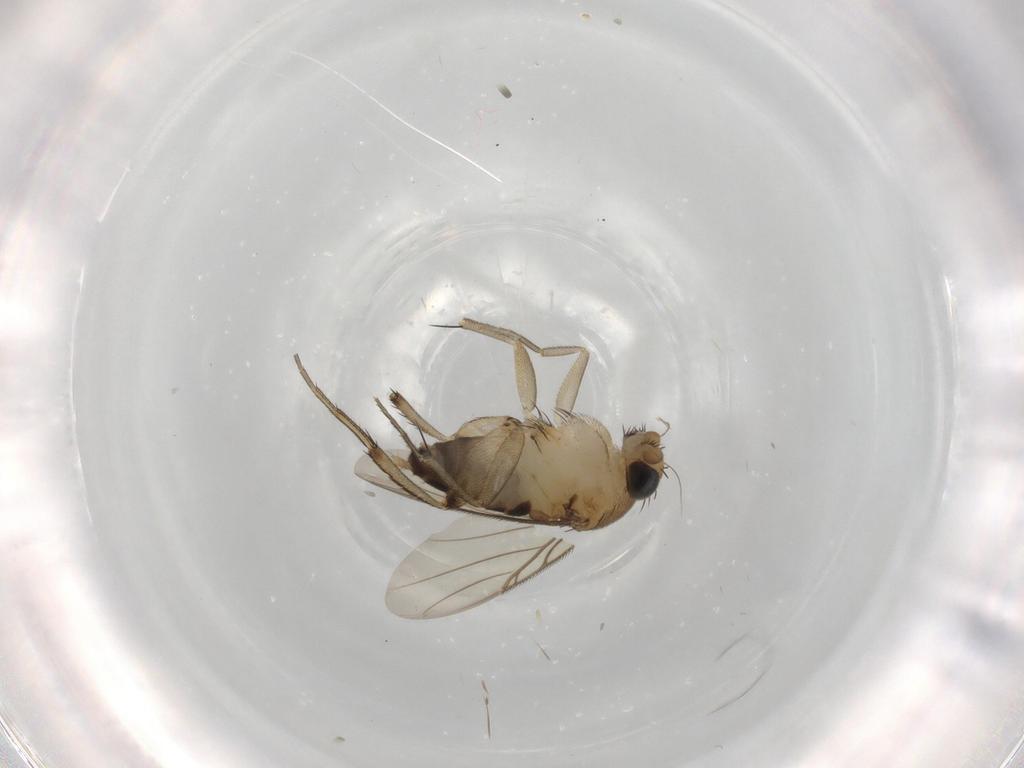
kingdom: Animalia
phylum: Arthropoda
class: Insecta
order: Diptera
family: Phoridae
